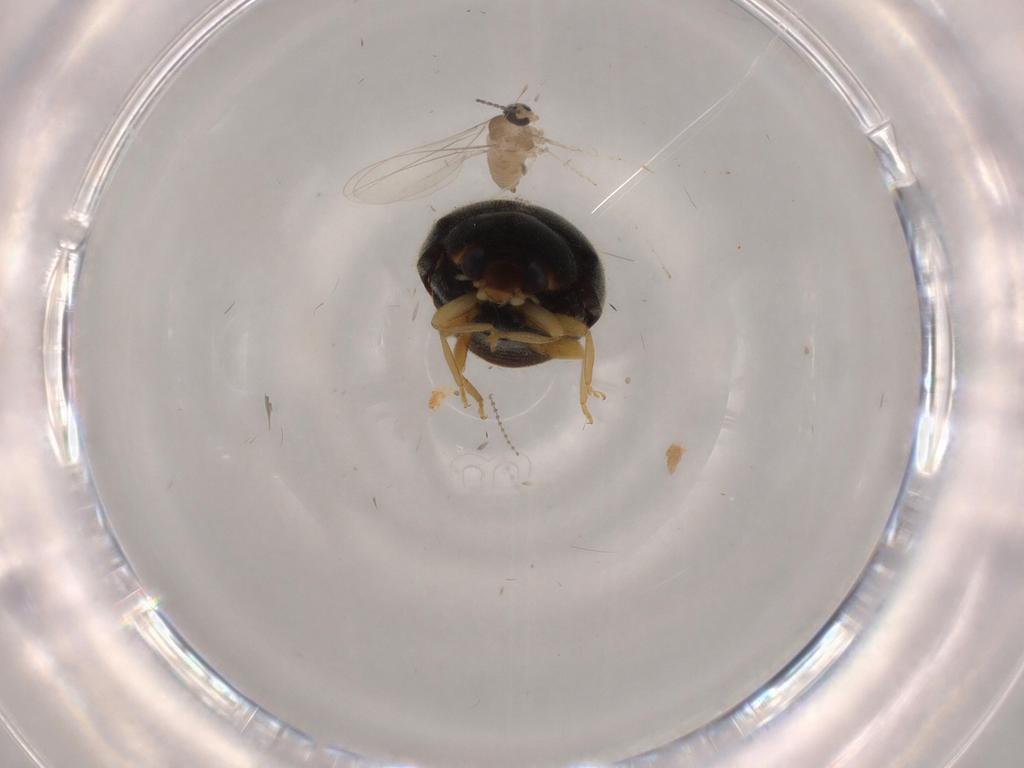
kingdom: Animalia
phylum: Arthropoda
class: Insecta
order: Diptera
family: Cecidomyiidae
